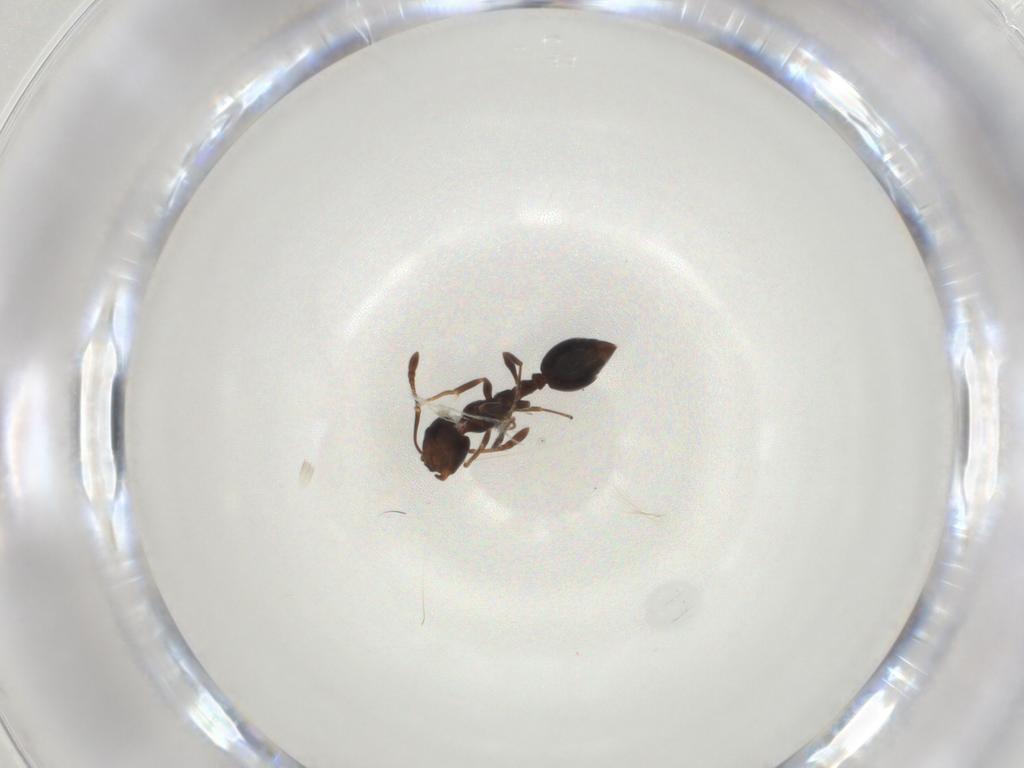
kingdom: Animalia
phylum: Arthropoda
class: Insecta
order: Hymenoptera
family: Formicidae
